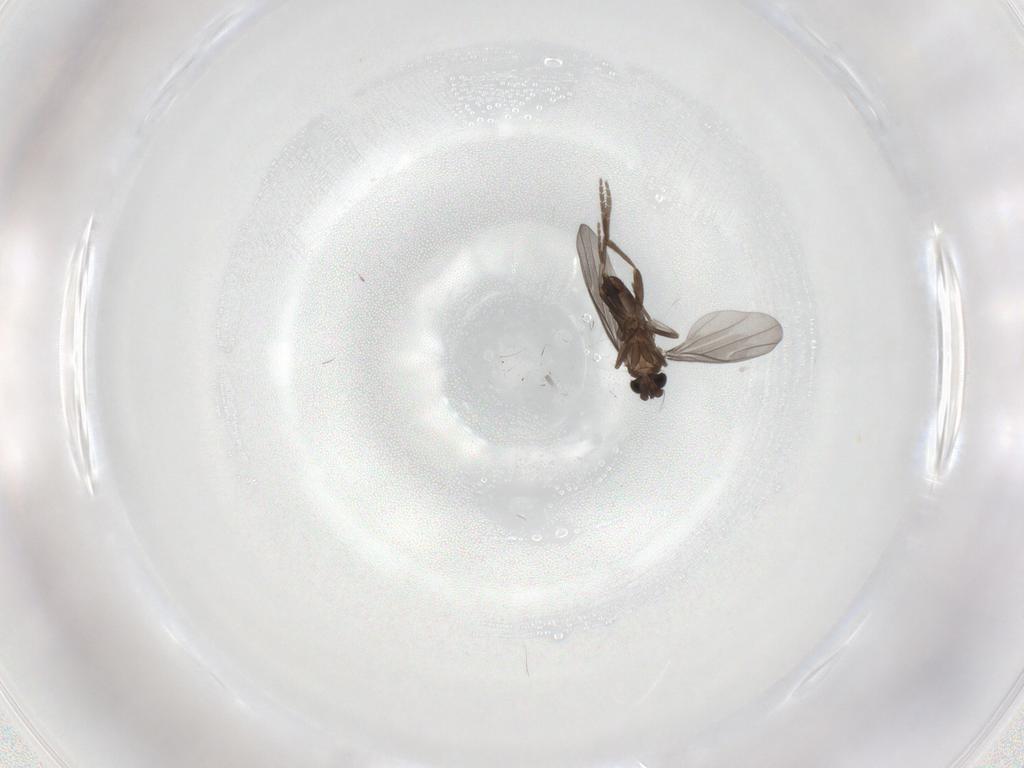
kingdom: Animalia
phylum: Arthropoda
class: Insecta
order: Diptera
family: Phoridae
